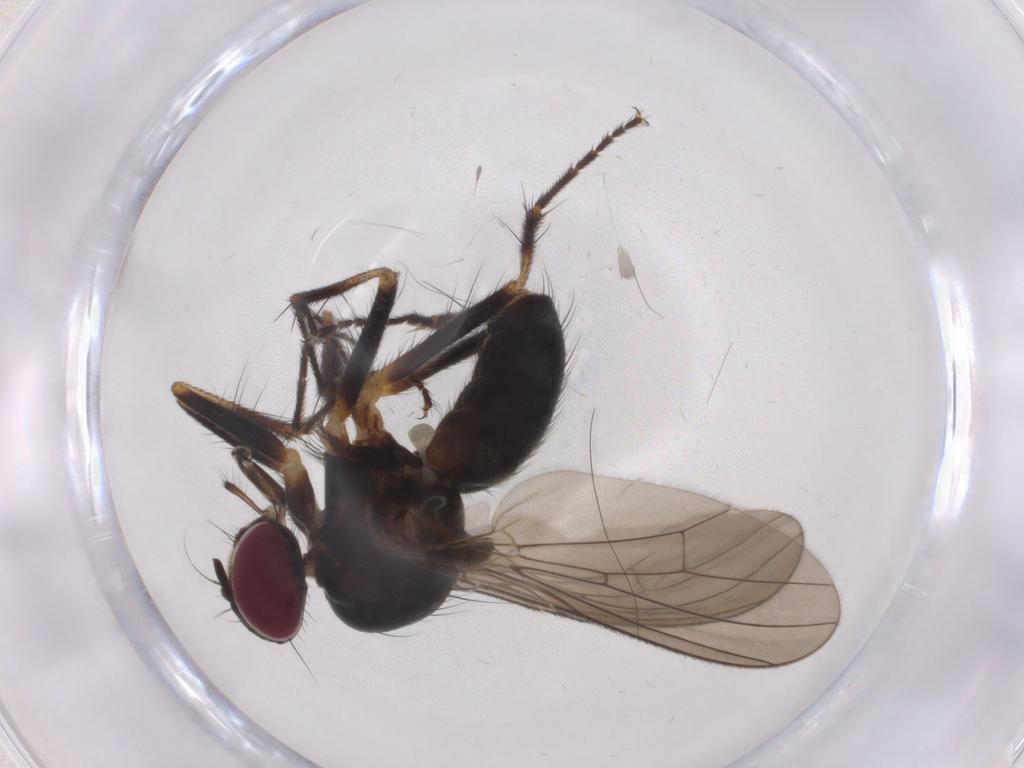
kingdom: Animalia
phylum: Arthropoda
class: Insecta
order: Diptera
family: Anthomyiidae
